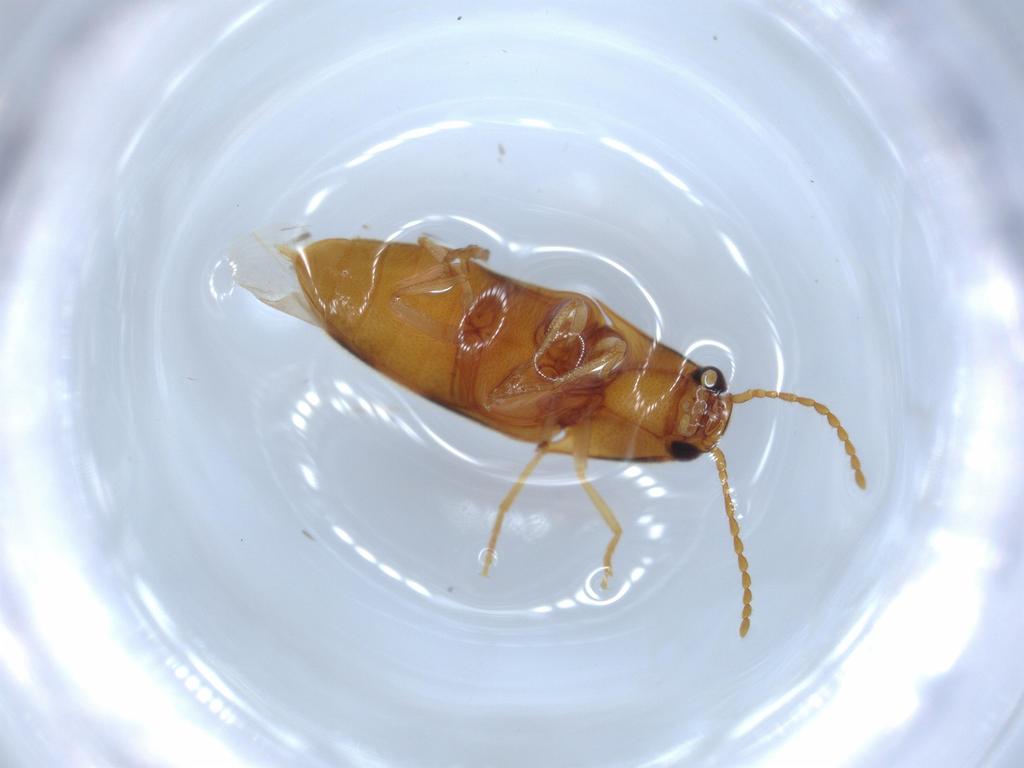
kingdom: Animalia
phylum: Arthropoda
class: Insecta
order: Coleoptera
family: Elateridae
